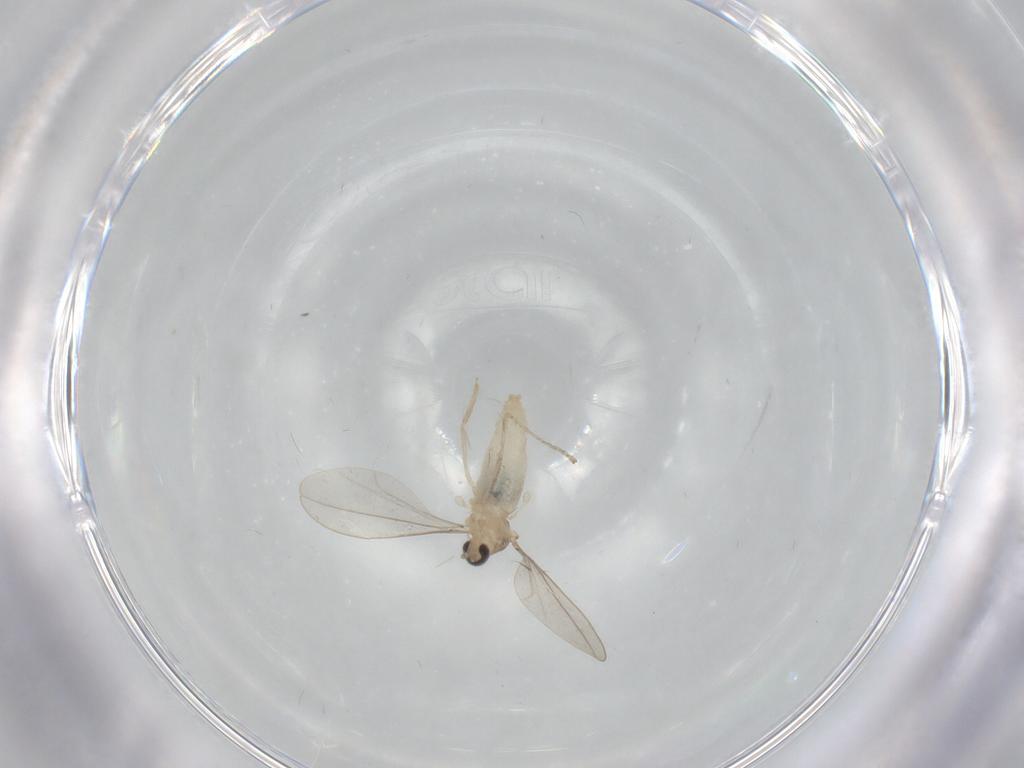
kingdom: Animalia
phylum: Arthropoda
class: Insecta
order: Diptera
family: Cecidomyiidae
